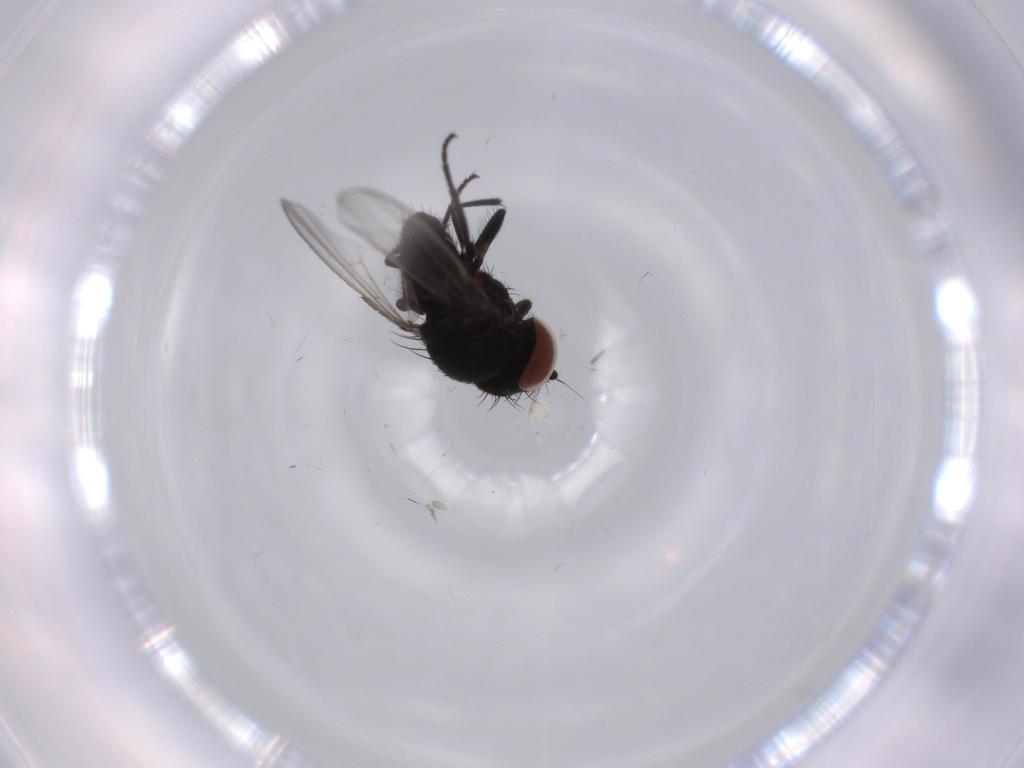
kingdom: Animalia
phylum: Arthropoda
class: Insecta
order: Diptera
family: Milichiidae
